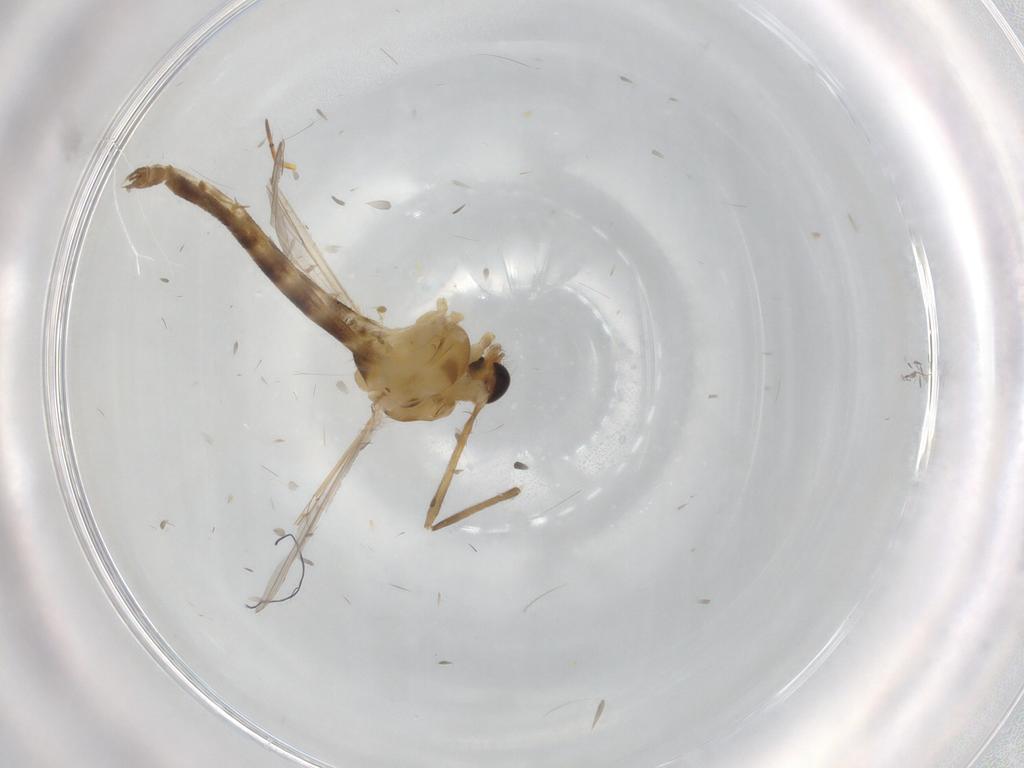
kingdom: Animalia
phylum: Arthropoda
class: Insecta
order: Diptera
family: Chironomidae
